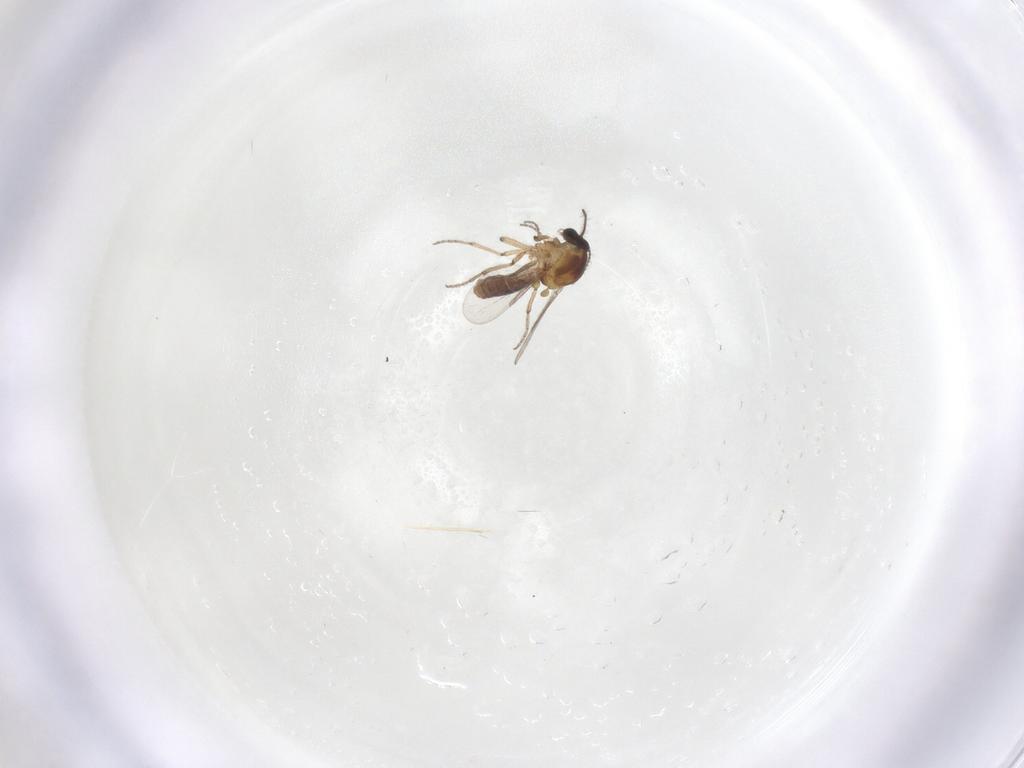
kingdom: Animalia
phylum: Arthropoda
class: Insecta
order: Diptera
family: Ceratopogonidae
